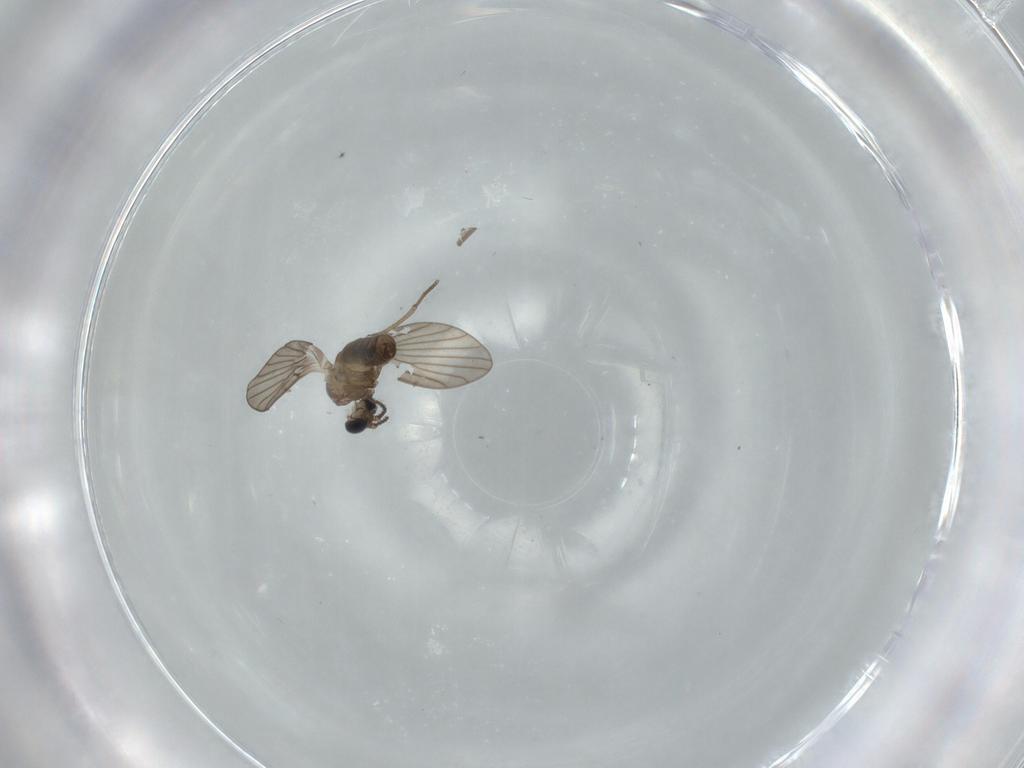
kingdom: Animalia
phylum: Arthropoda
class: Insecta
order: Diptera
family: Psychodidae
